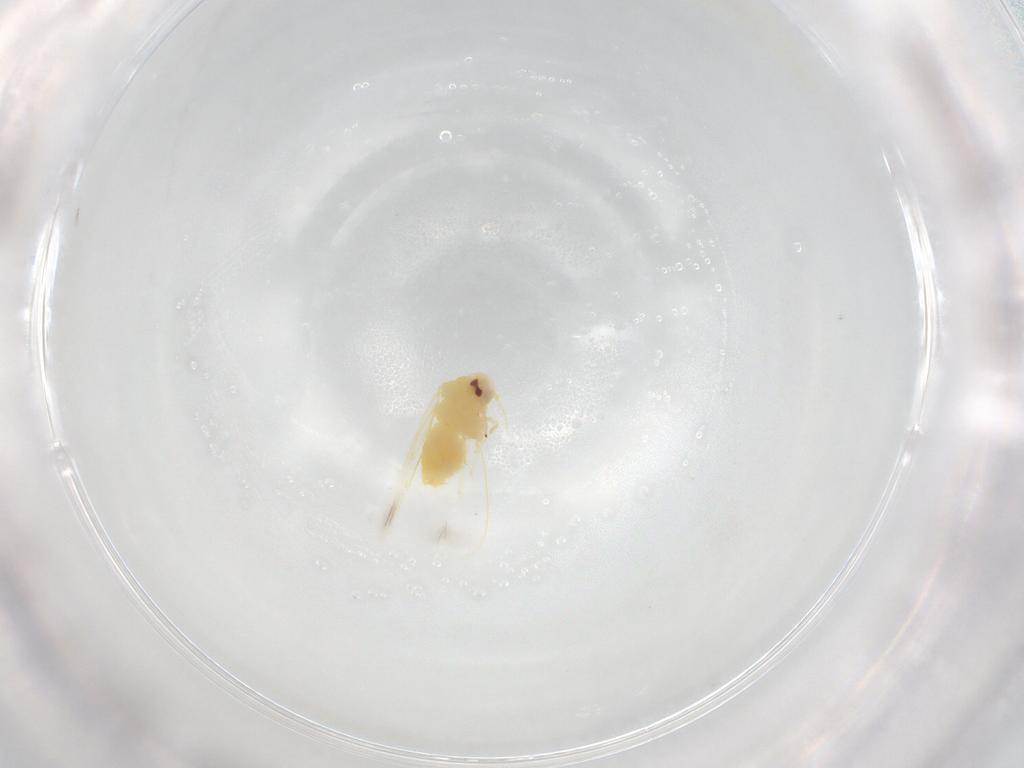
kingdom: Animalia
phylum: Arthropoda
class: Insecta
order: Hemiptera
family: Aleyrodidae
